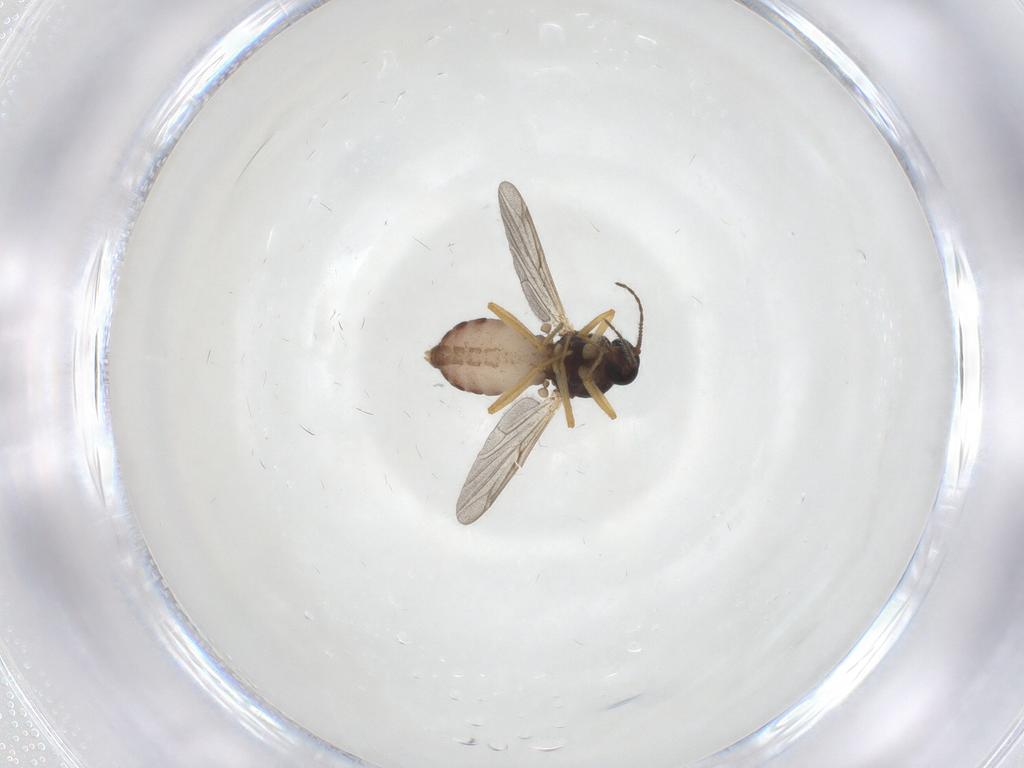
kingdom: Animalia
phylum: Arthropoda
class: Insecta
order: Diptera
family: Ceratopogonidae
